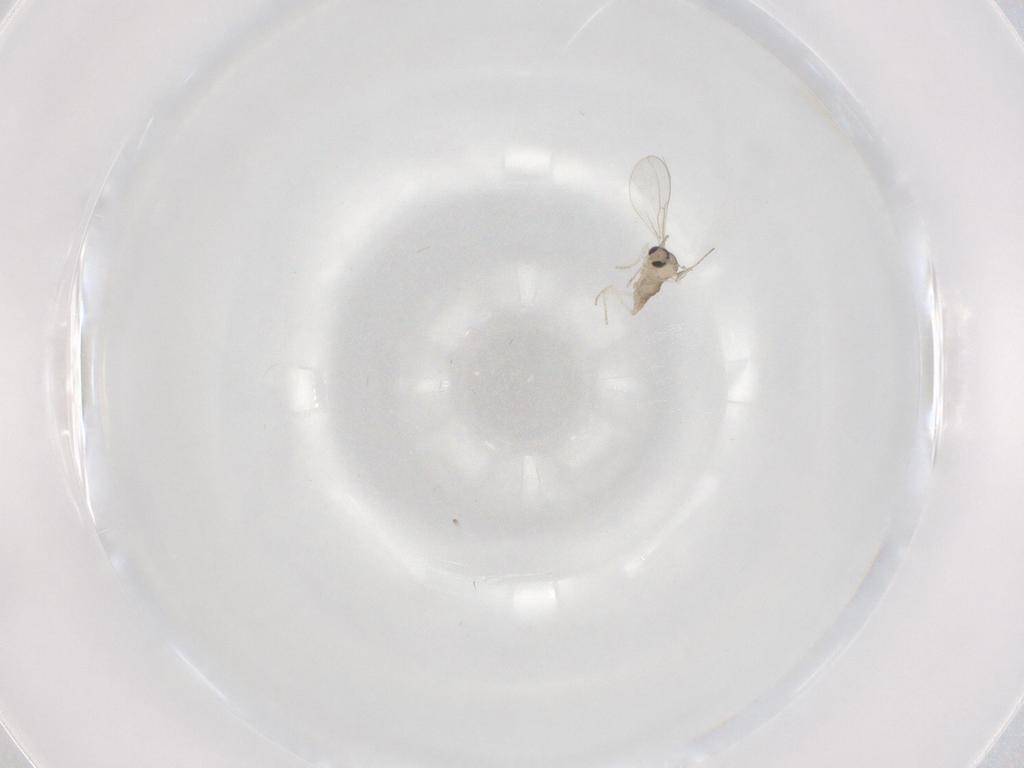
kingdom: Animalia
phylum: Arthropoda
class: Insecta
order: Diptera
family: Cecidomyiidae
